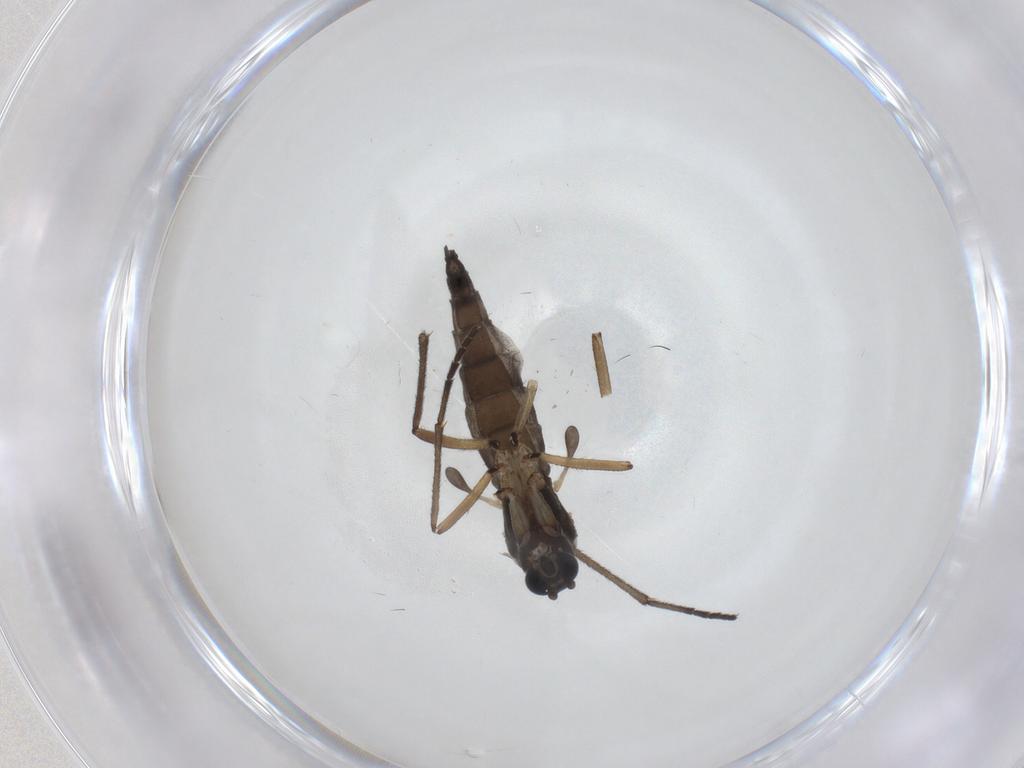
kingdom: Animalia
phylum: Arthropoda
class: Insecta
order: Diptera
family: Sciaridae
